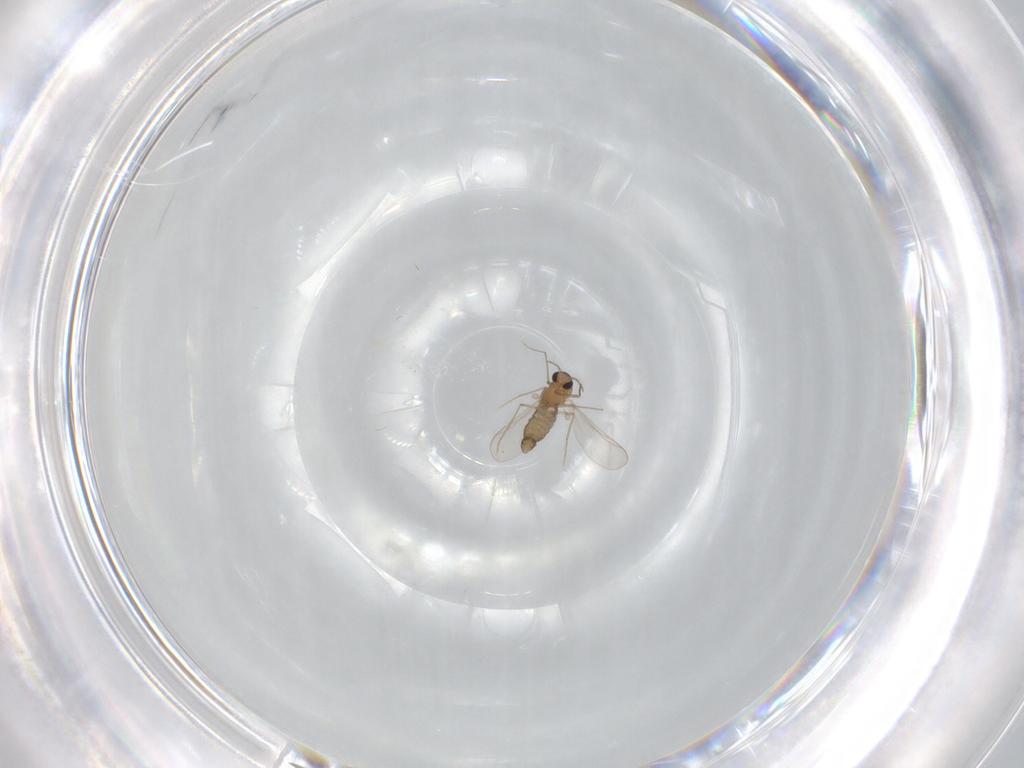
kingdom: Animalia
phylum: Arthropoda
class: Insecta
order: Diptera
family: Chironomidae
